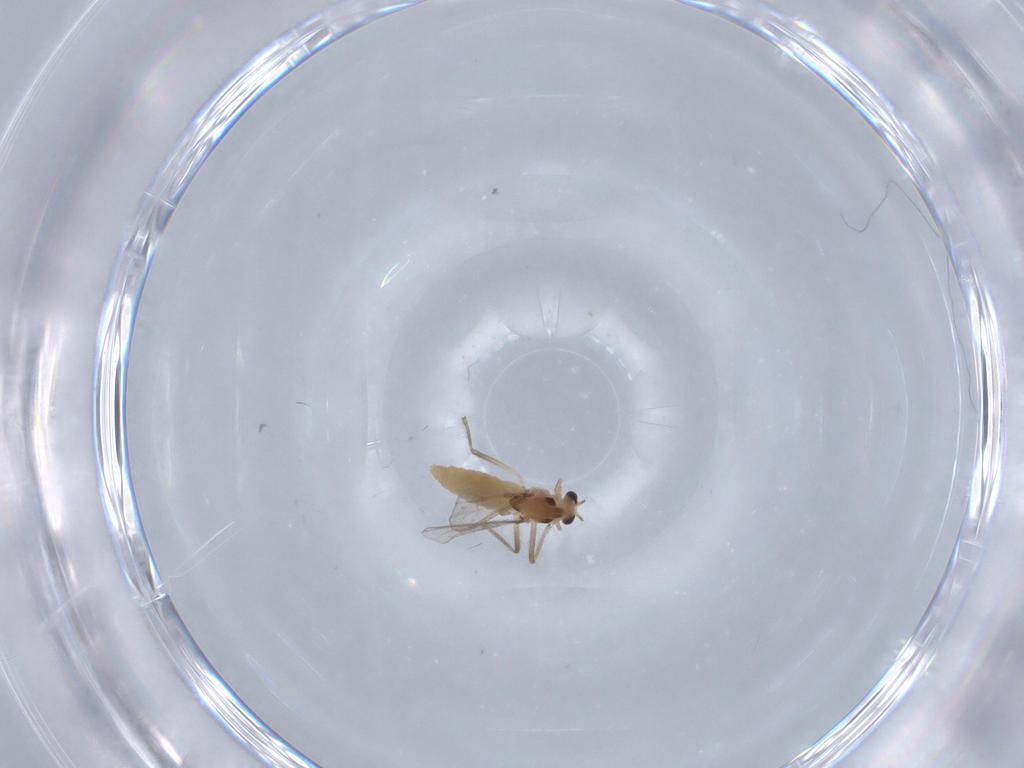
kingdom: Animalia
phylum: Arthropoda
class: Insecta
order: Diptera
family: Chironomidae
